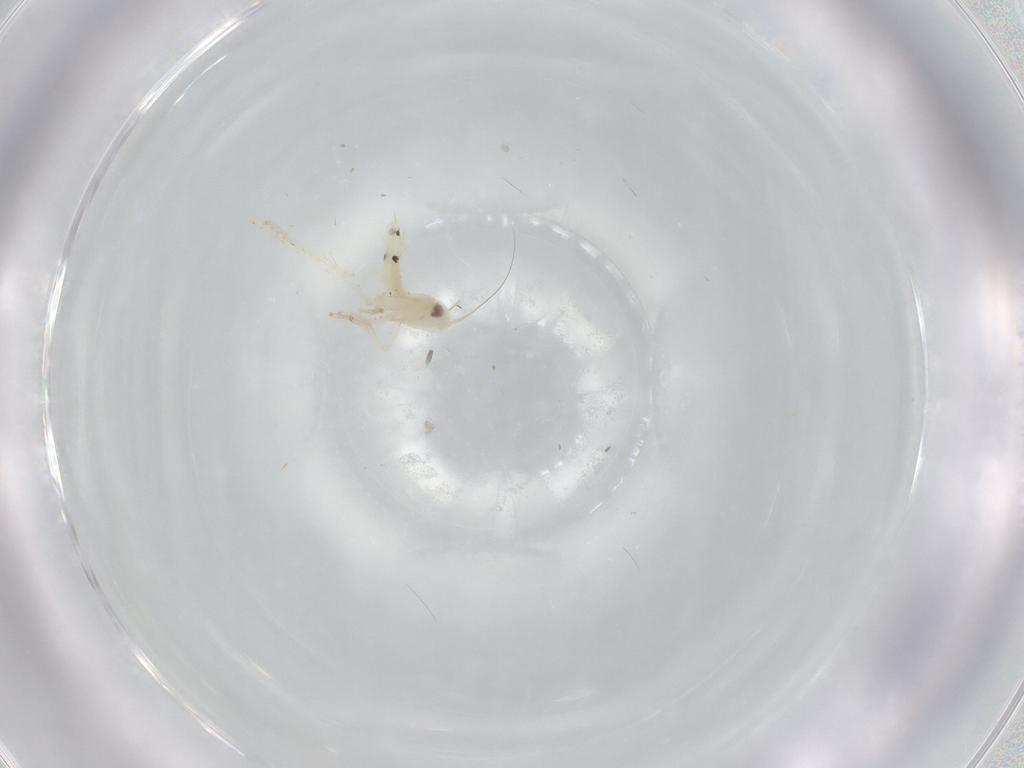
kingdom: Animalia
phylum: Arthropoda
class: Insecta
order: Hemiptera
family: Cicadellidae
